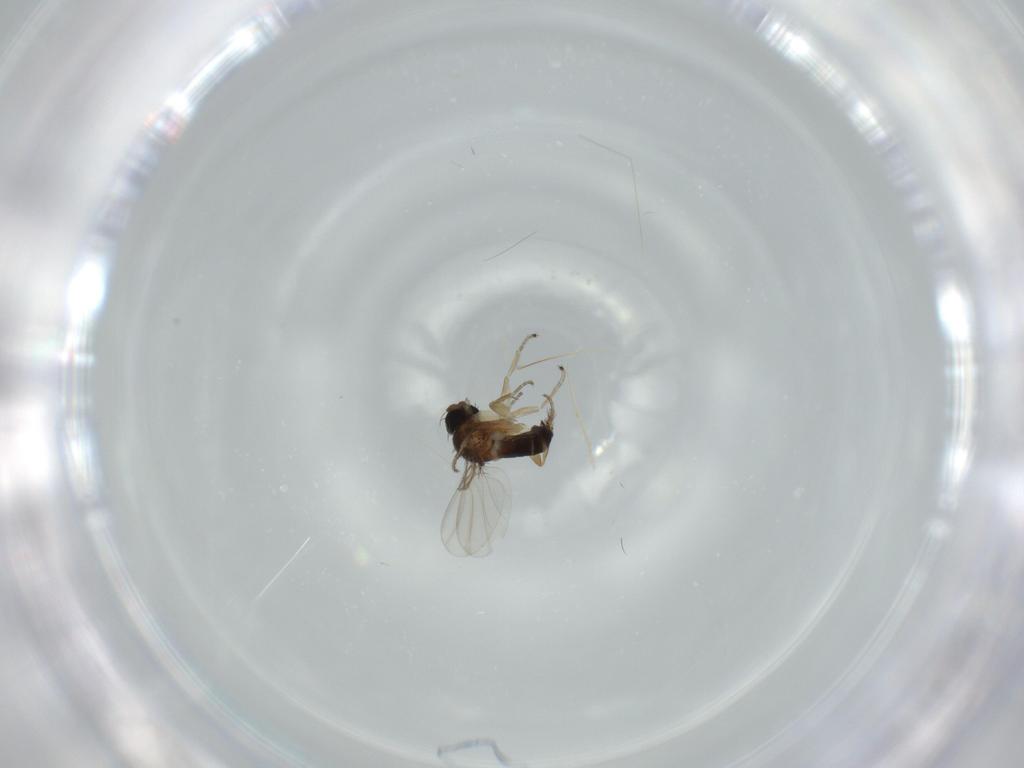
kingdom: Animalia
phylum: Arthropoda
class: Insecta
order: Diptera
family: Phoridae
